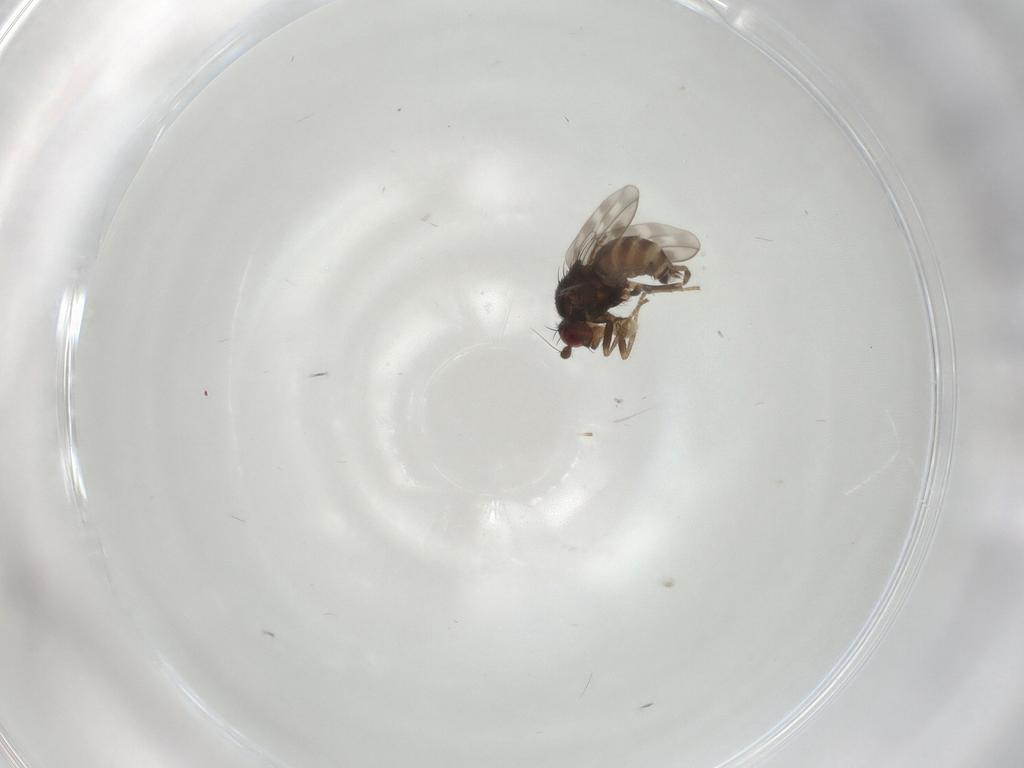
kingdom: Animalia
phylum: Arthropoda
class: Insecta
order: Diptera
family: Sphaeroceridae
